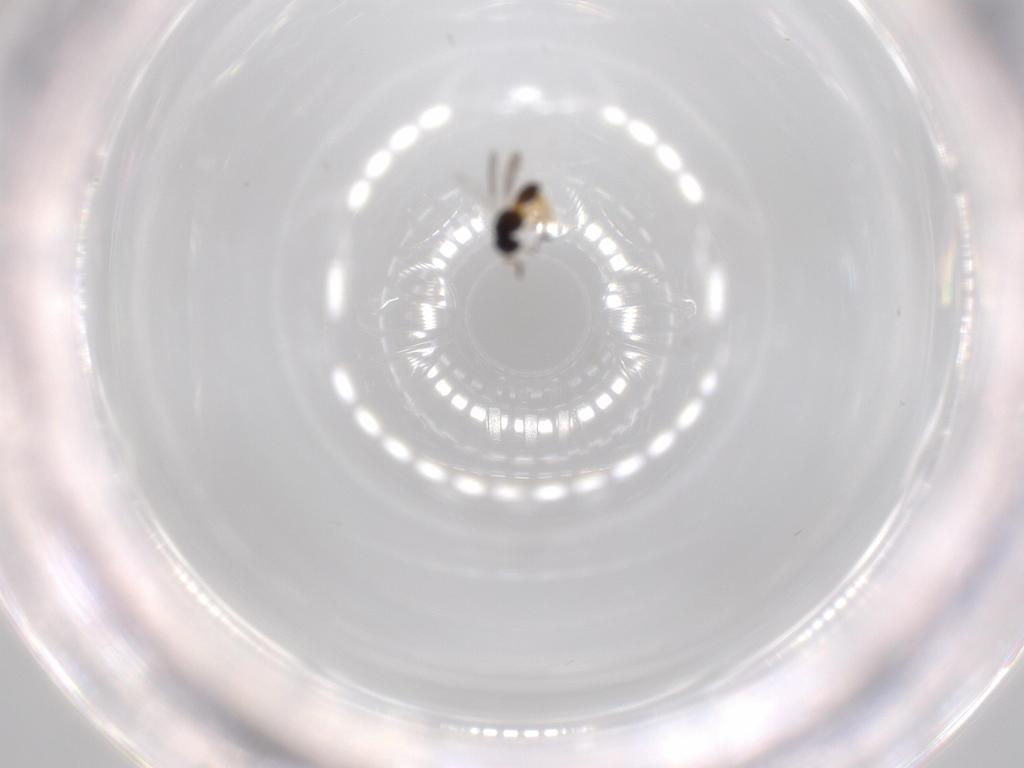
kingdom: Animalia
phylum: Arthropoda
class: Insecta
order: Hymenoptera
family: Scelionidae
